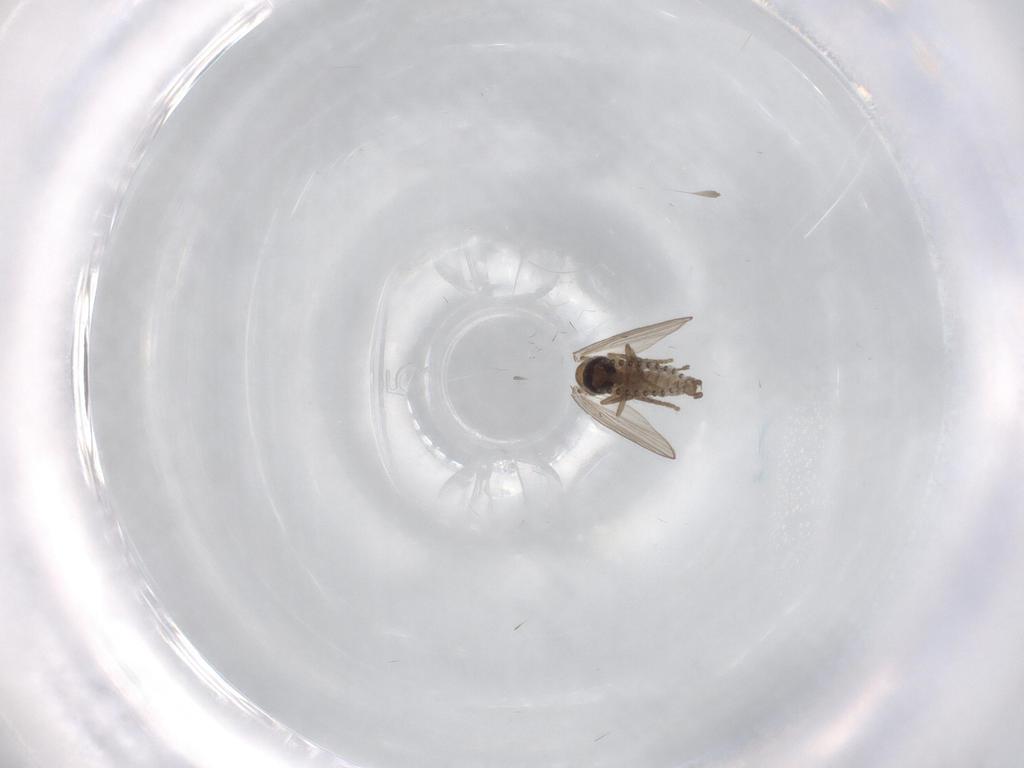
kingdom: Animalia
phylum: Arthropoda
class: Insecta
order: Diptera
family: Psychodidae
